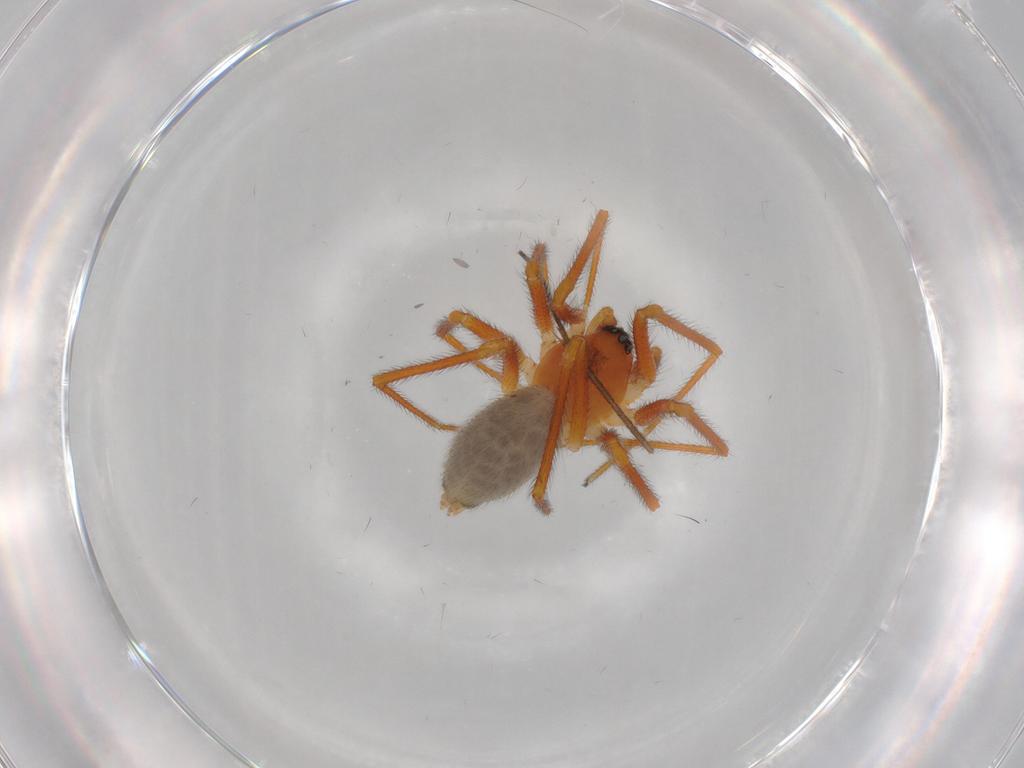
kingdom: Animalia
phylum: Arthropoda
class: Arachnida
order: Araneae
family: Linyphiidae
